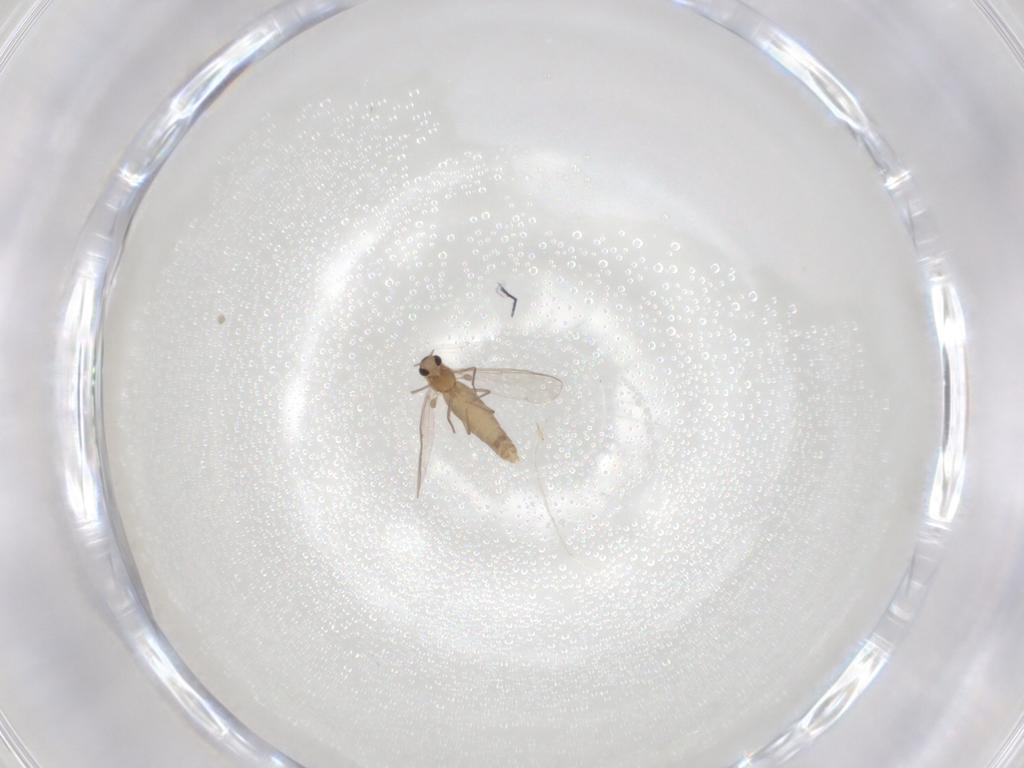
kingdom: Animalia
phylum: Arthropoda
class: Insecta
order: Diptera
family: Chironomidae
